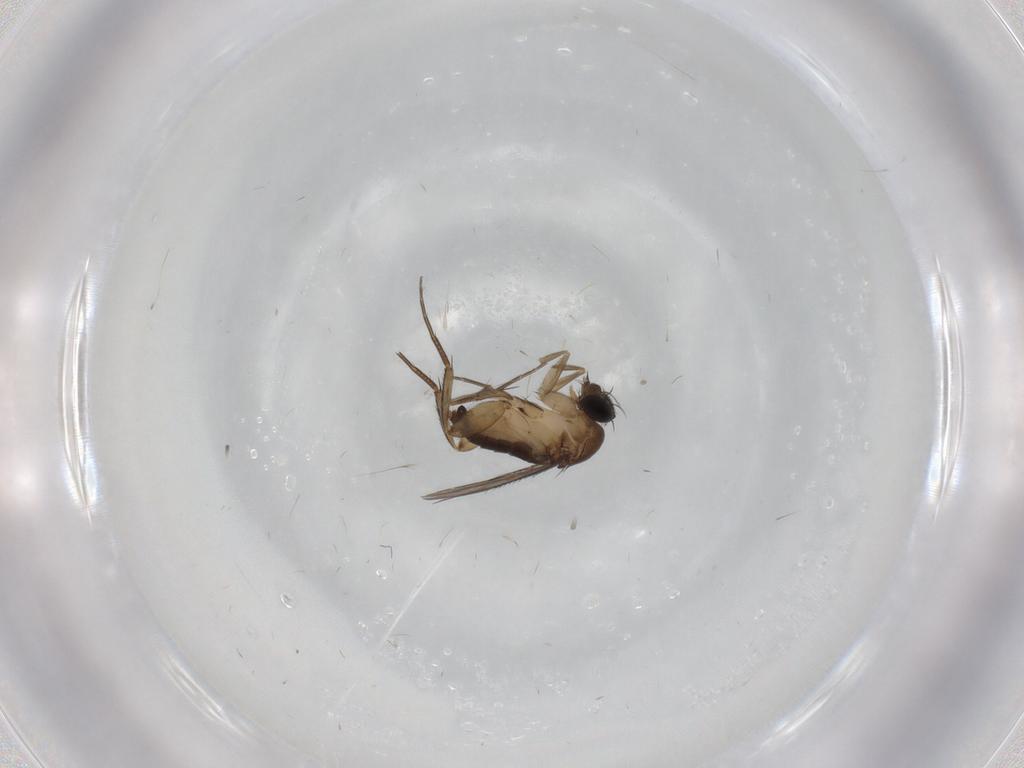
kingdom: Animalia
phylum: Arthropoda
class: Insecta
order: Diptera
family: Phoridae
